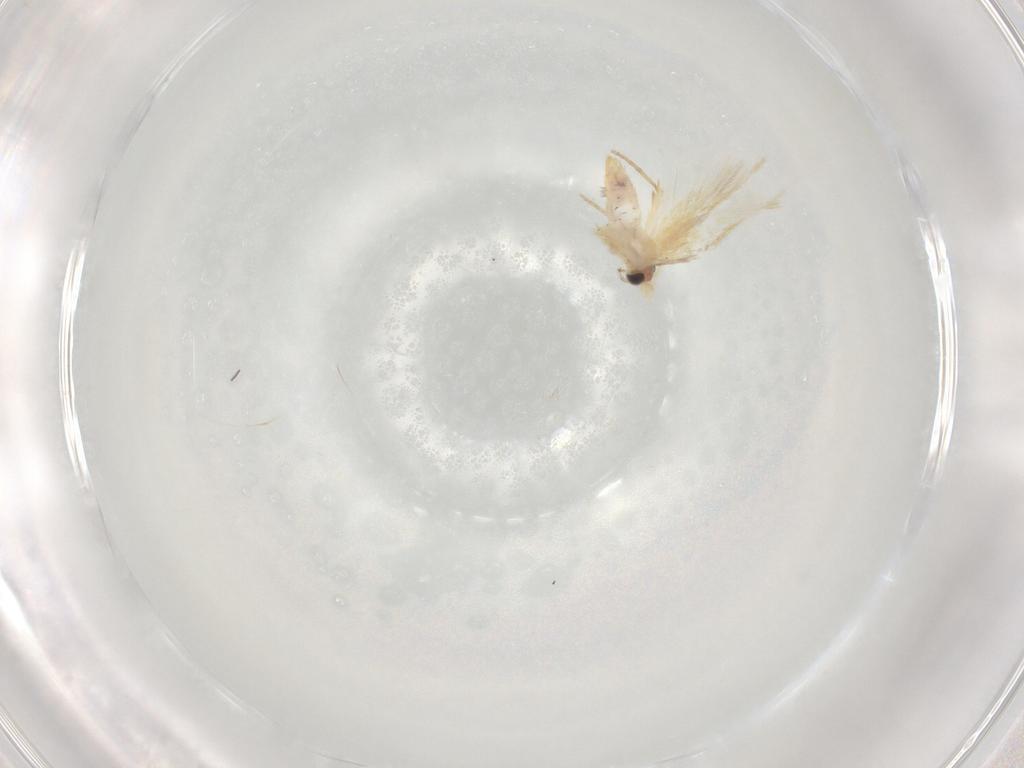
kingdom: Animalia
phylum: Arthropoda
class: Insecta
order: Lepidoptera
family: Nepticulidae
